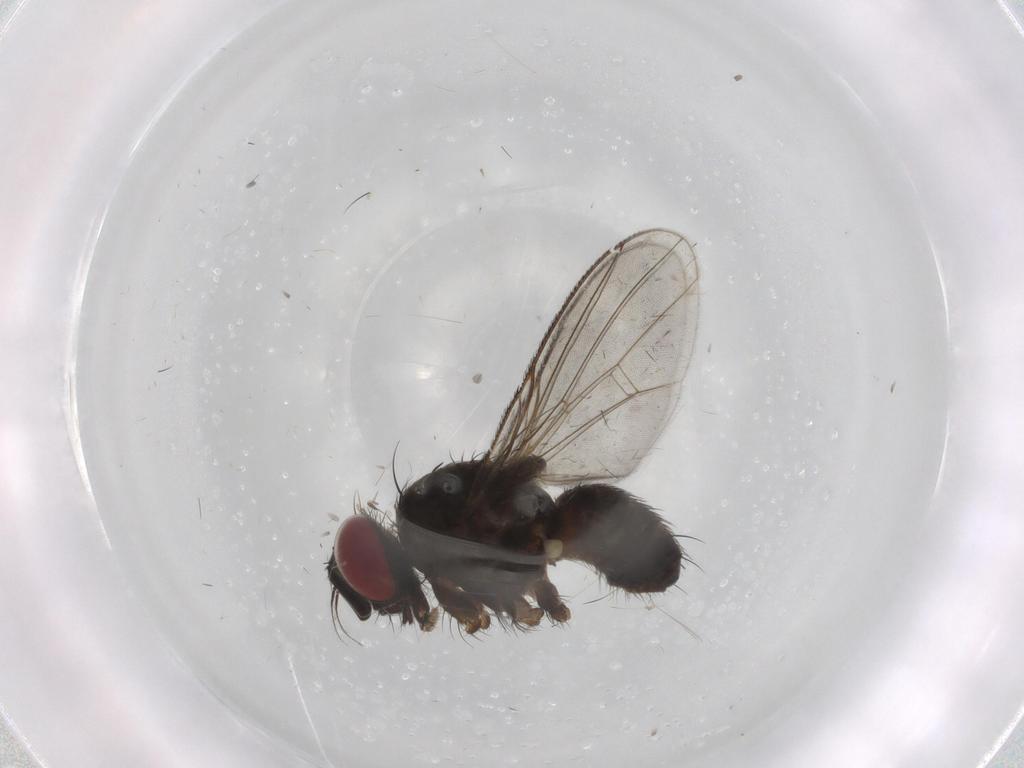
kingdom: Animalia
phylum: Arthropoda
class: Insecta
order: Diptera
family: Muscidae
